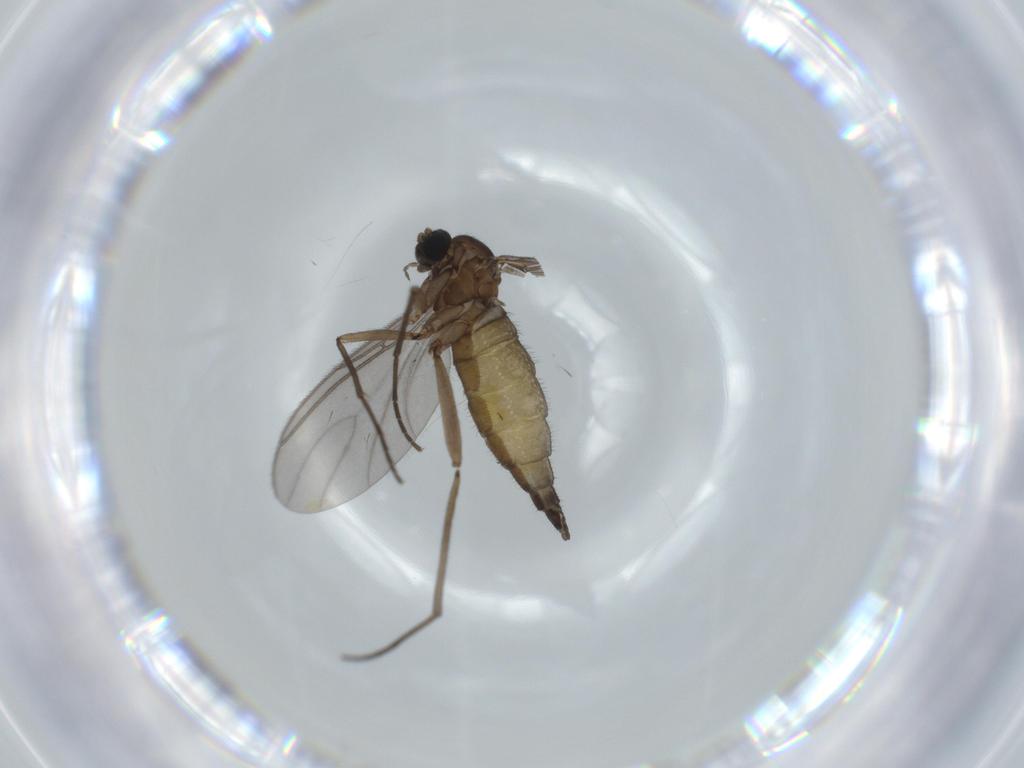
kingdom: Animalia
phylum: Arthropoda
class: Insecta
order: Diptera
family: Sciaridae
